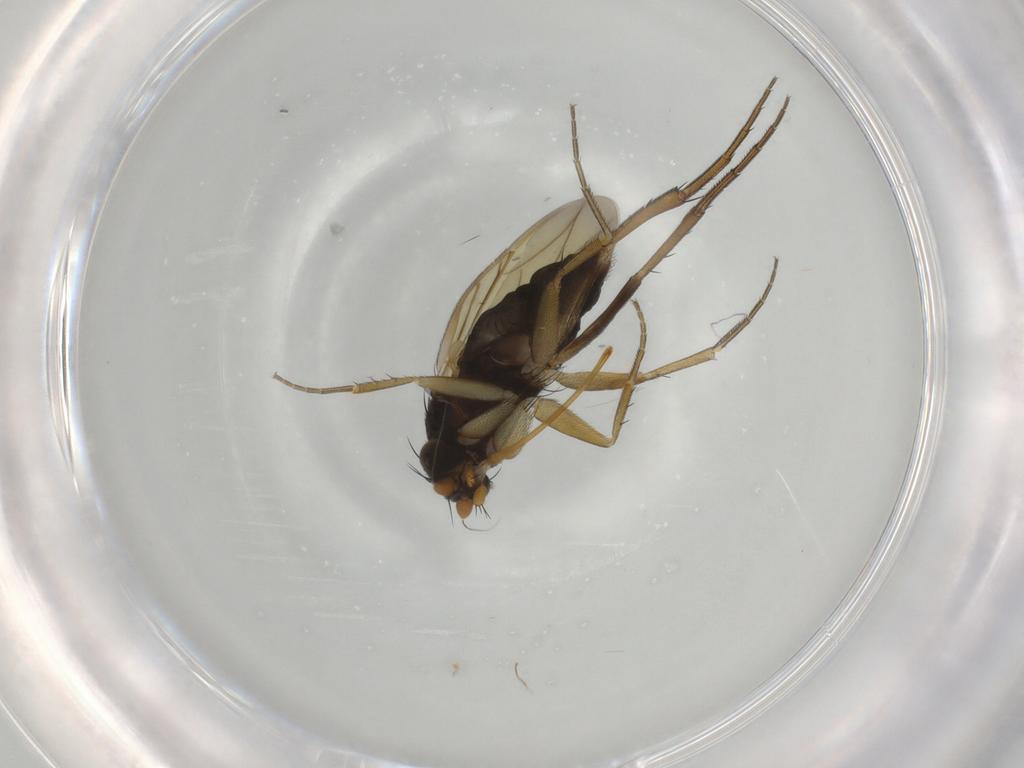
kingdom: Animalia
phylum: Arthropoda
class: Insecta
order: Diptera
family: Phoridae
